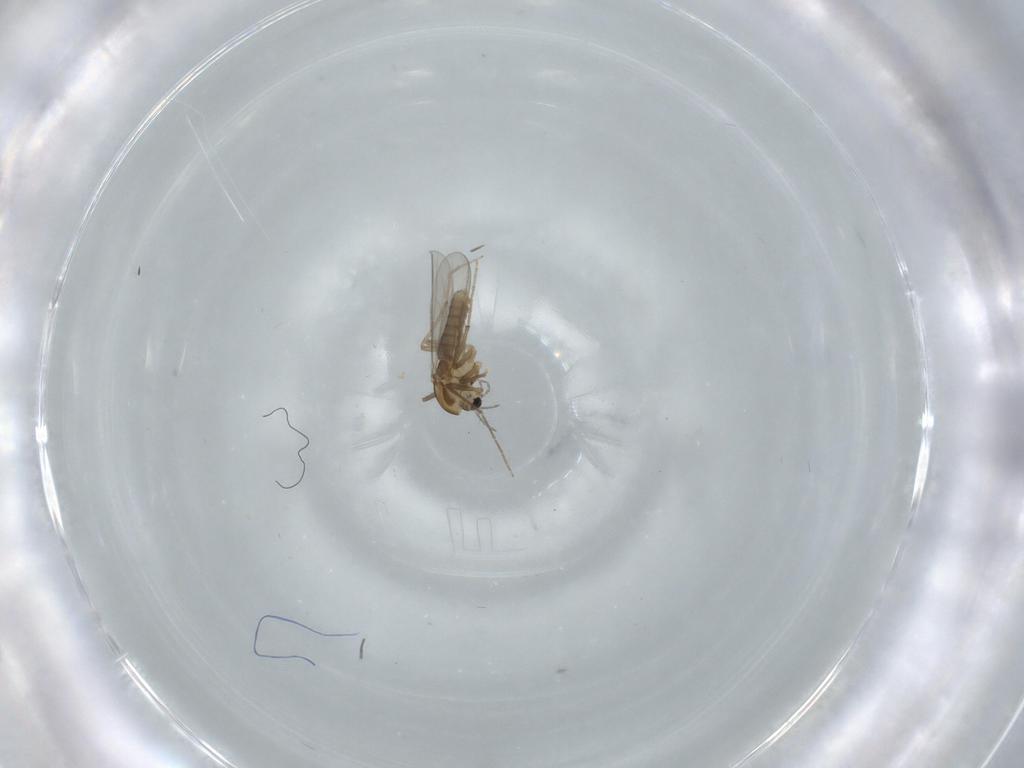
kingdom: Animalia
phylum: Arthropoda
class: Insecta
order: Diptera
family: Chironomidae
